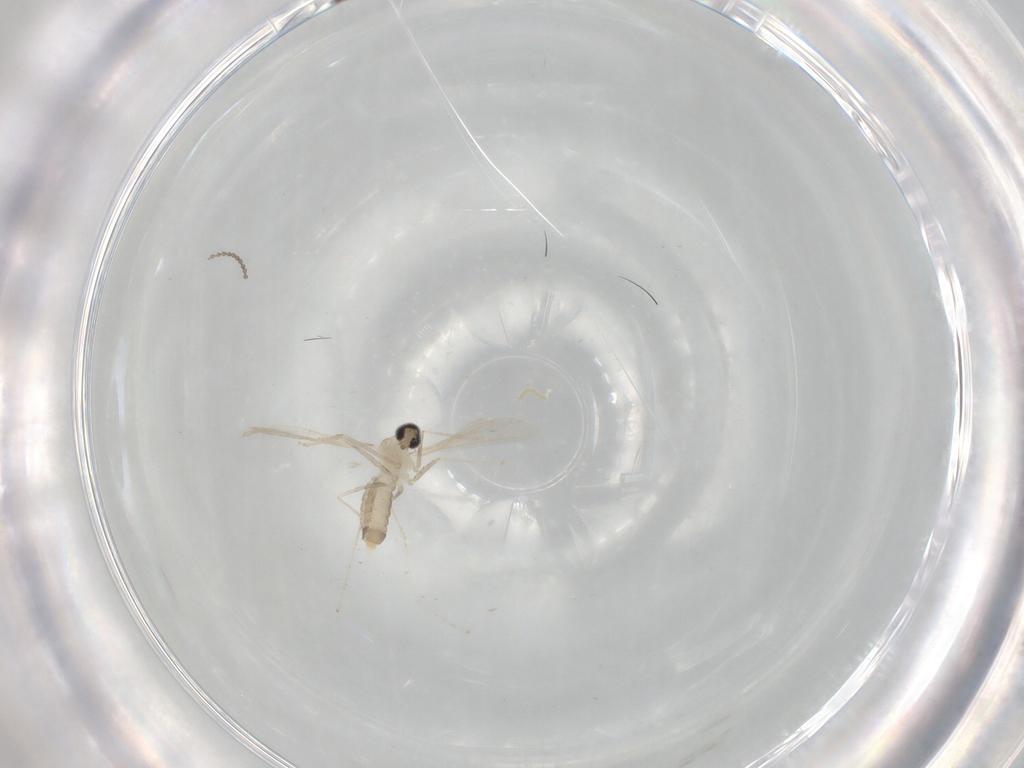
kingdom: Animalia
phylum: Arthropoda
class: Insecta
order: Diptera
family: Cecidomyiidae
